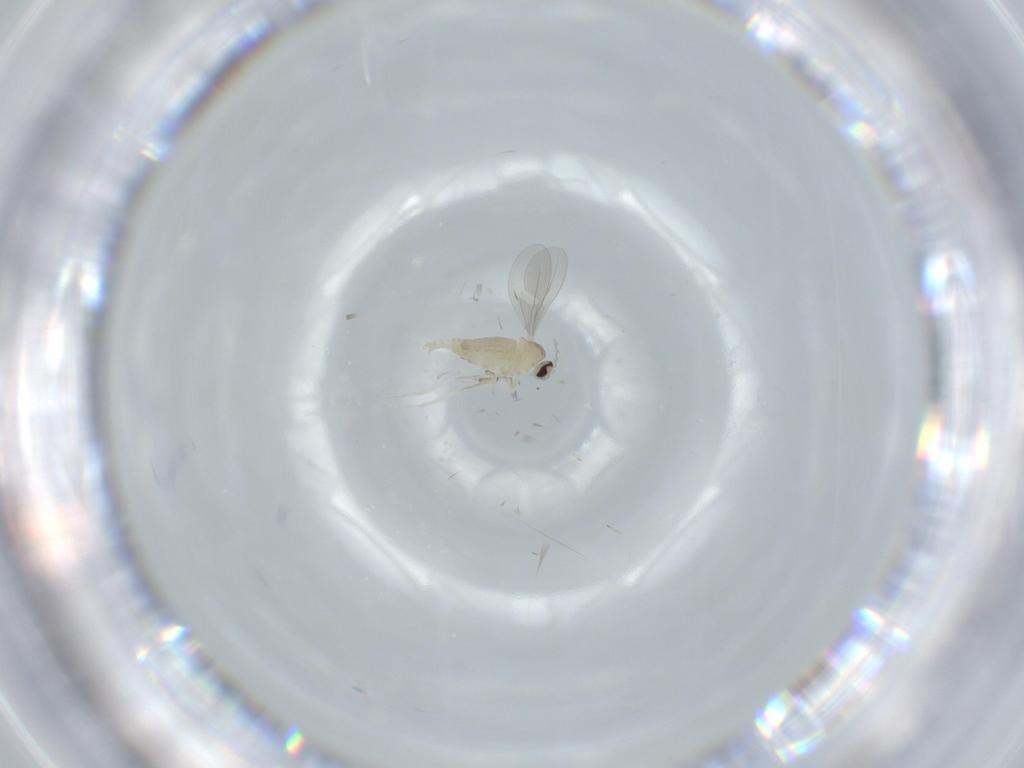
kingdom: Animalia
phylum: Arthropoda
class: Insecta
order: Diptera
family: Cecidomyiidae
